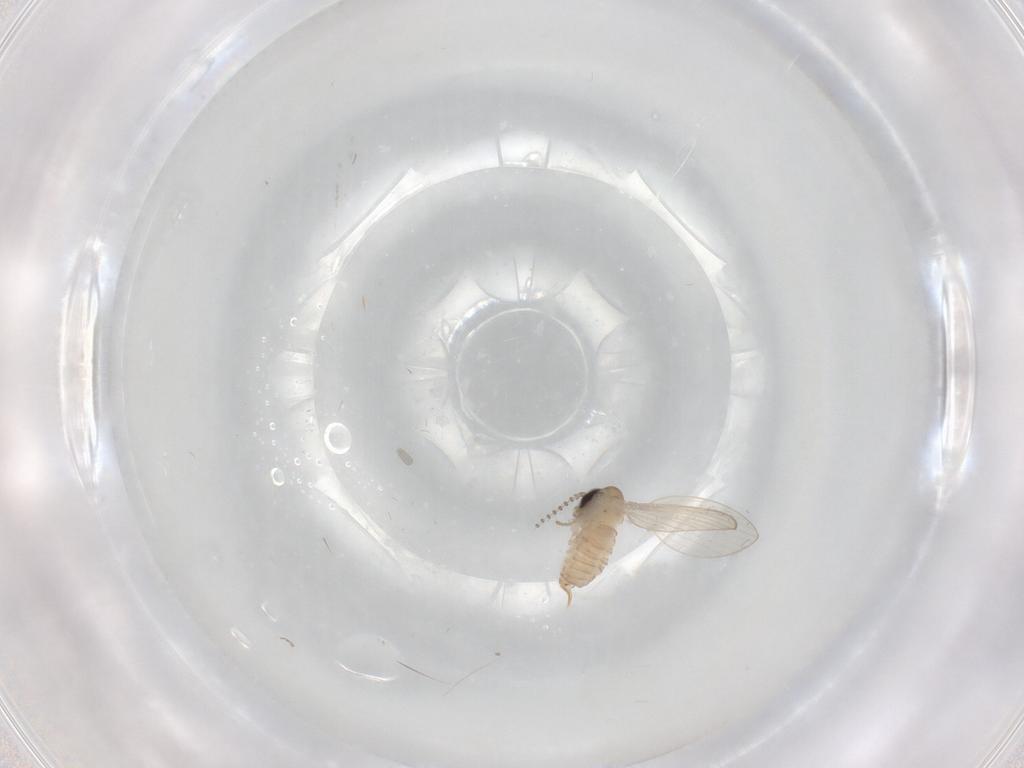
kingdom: Animalia
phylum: Arthropoda
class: Insecta
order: Diptera
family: Psychodidae
